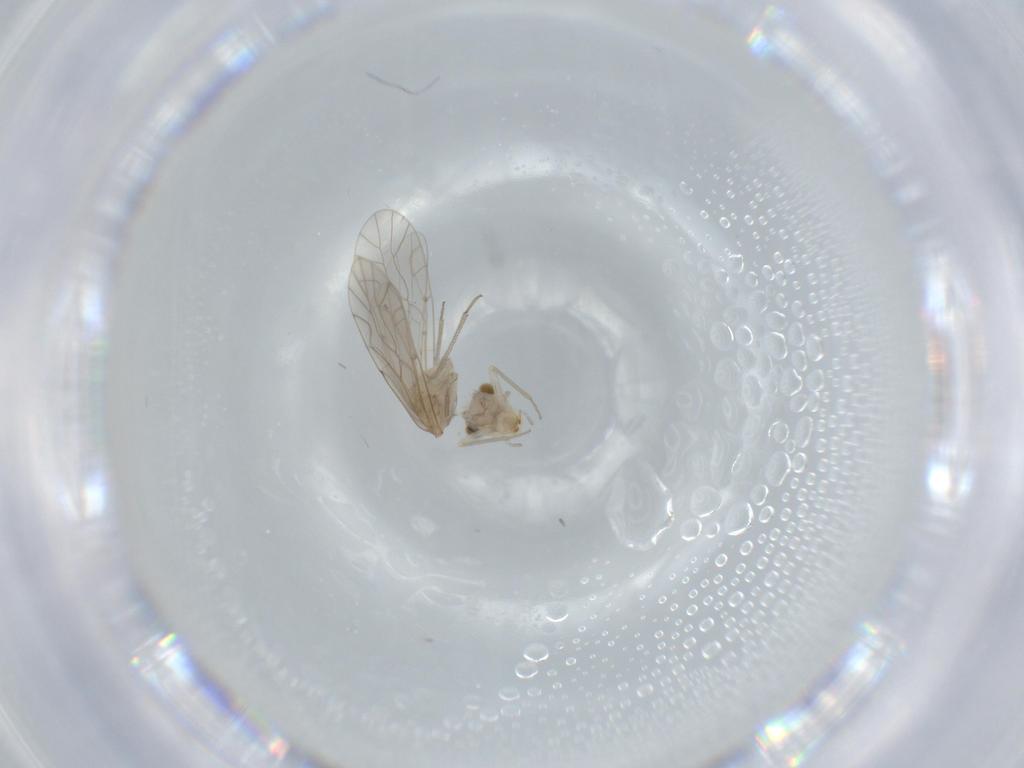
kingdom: Animalia
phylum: Arthropoda
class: Insecta
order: Psocodea
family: Lachesillidae
